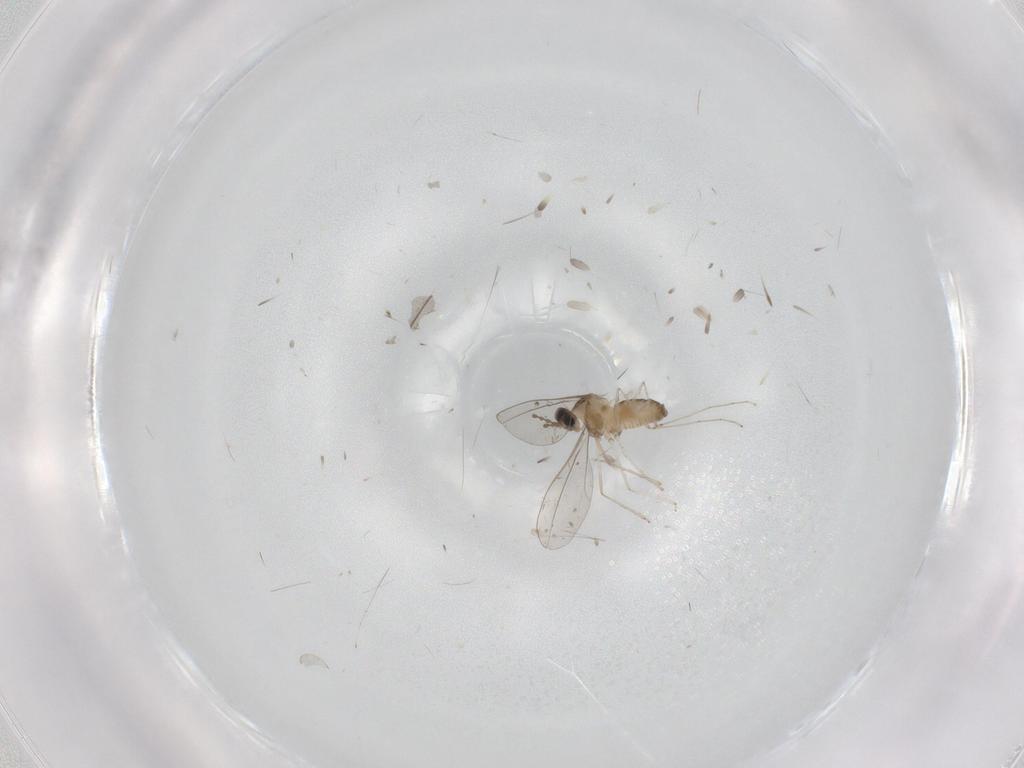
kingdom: Animalia
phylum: Arthropoda
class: Insecta
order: Diptera
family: Cecidomyiidae
